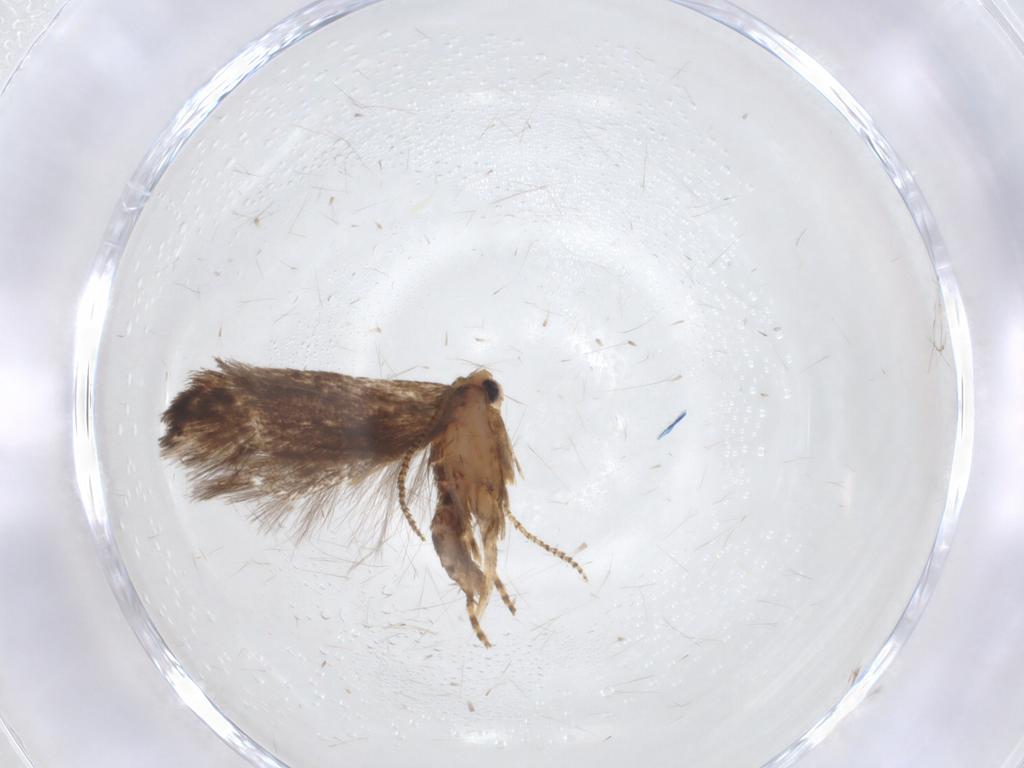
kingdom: Animalia
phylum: Arthropoda
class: Insecta
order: Lepidoptera
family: Gelechiidae
